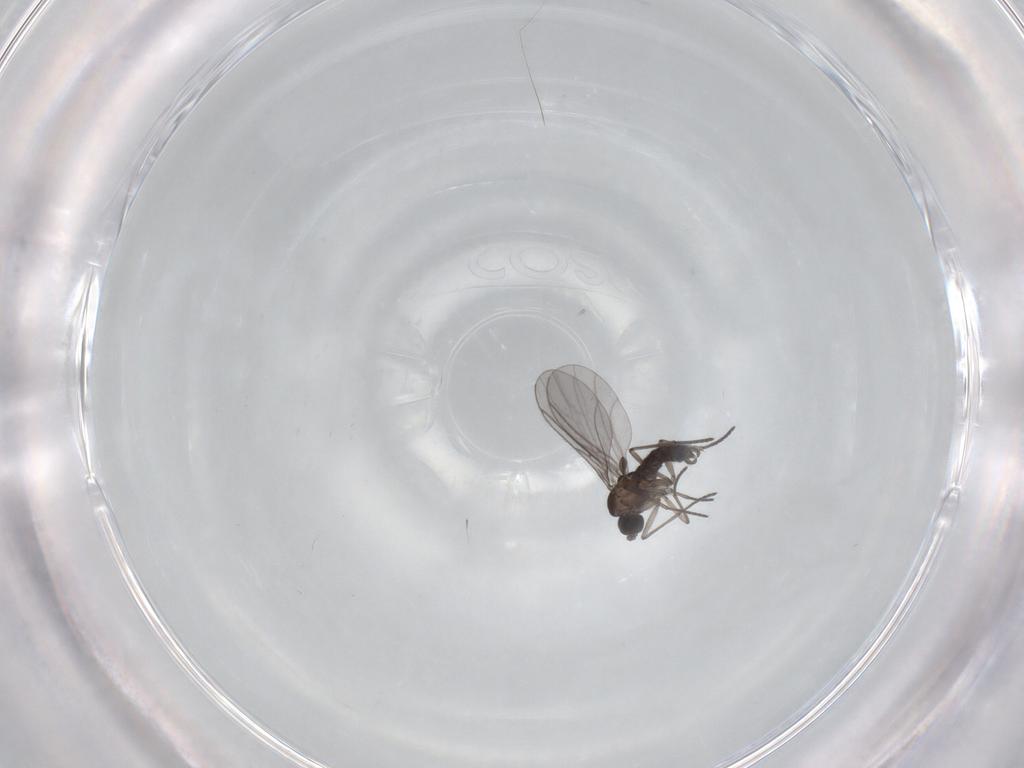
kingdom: Animalia
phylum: Arthropoda
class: Insecta
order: Diptera
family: Sciaridae
